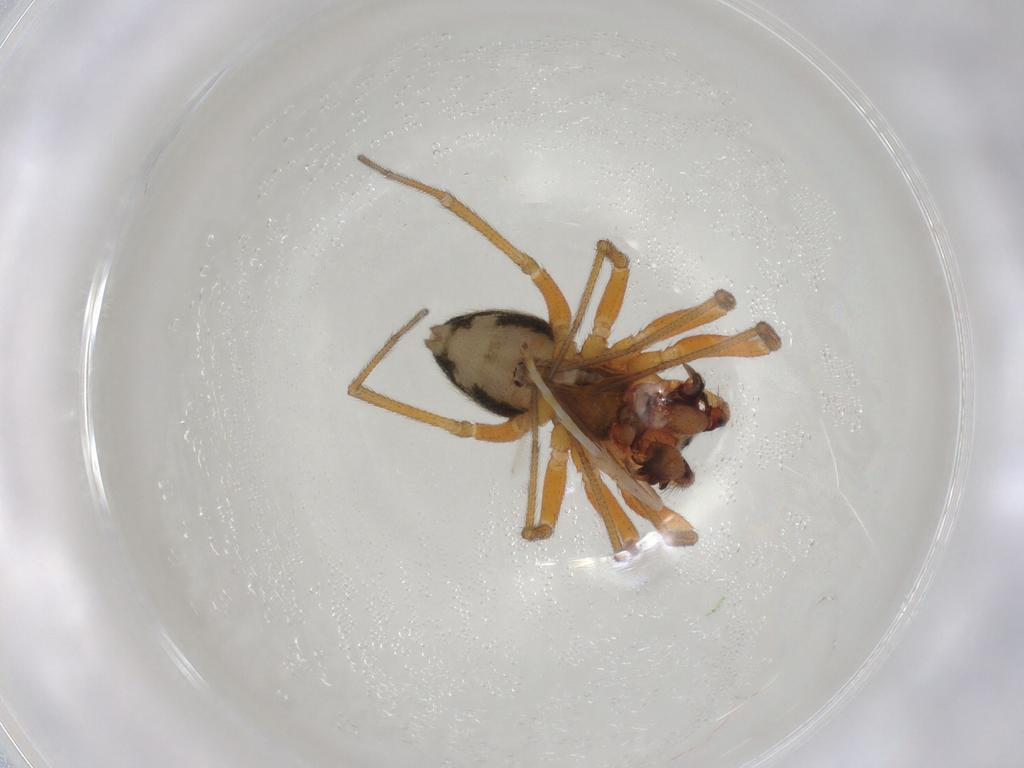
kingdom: Animalia
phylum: Arthropoda
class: Arachnida
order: Araneae
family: Linyphiidae
